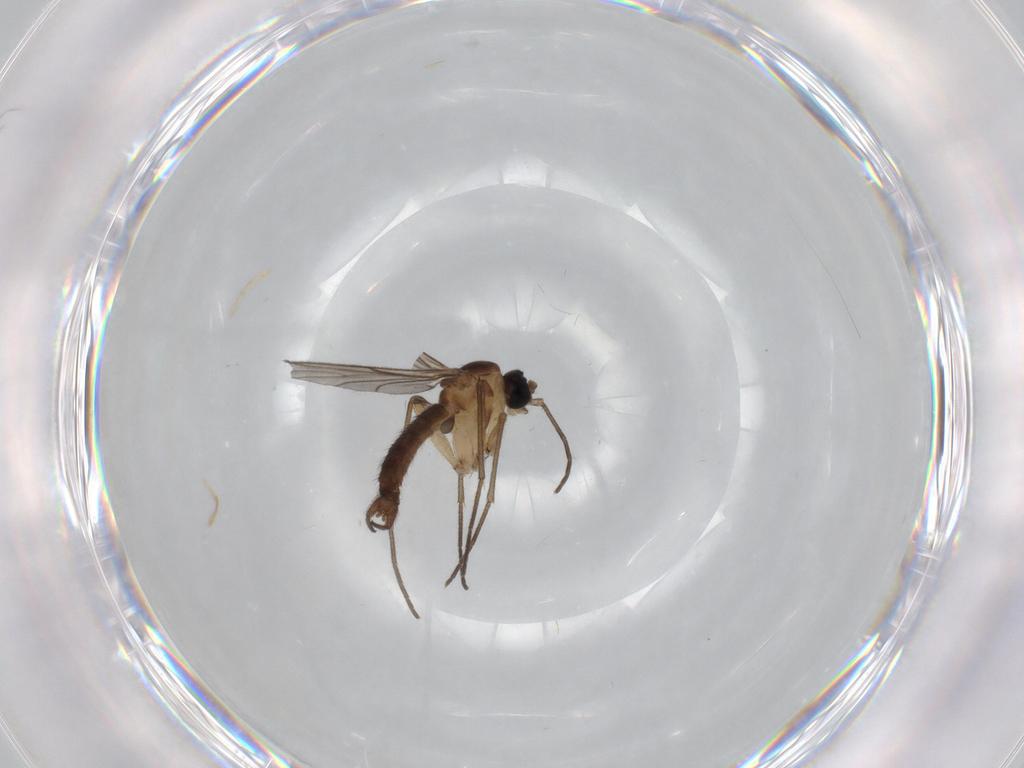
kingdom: Animalia
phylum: Arthropoda
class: Insecta
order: Diptera
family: Sciaridae
